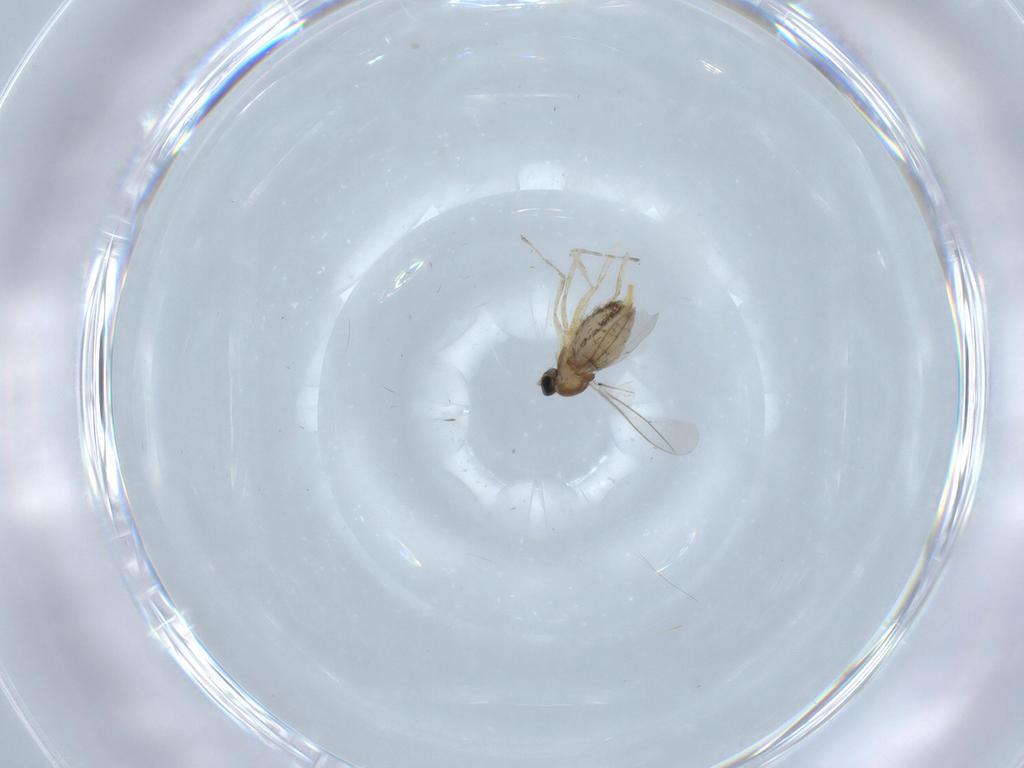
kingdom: Animalia
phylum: Arthropoda
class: Insecta
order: Diptera
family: Cecidomyiidae
